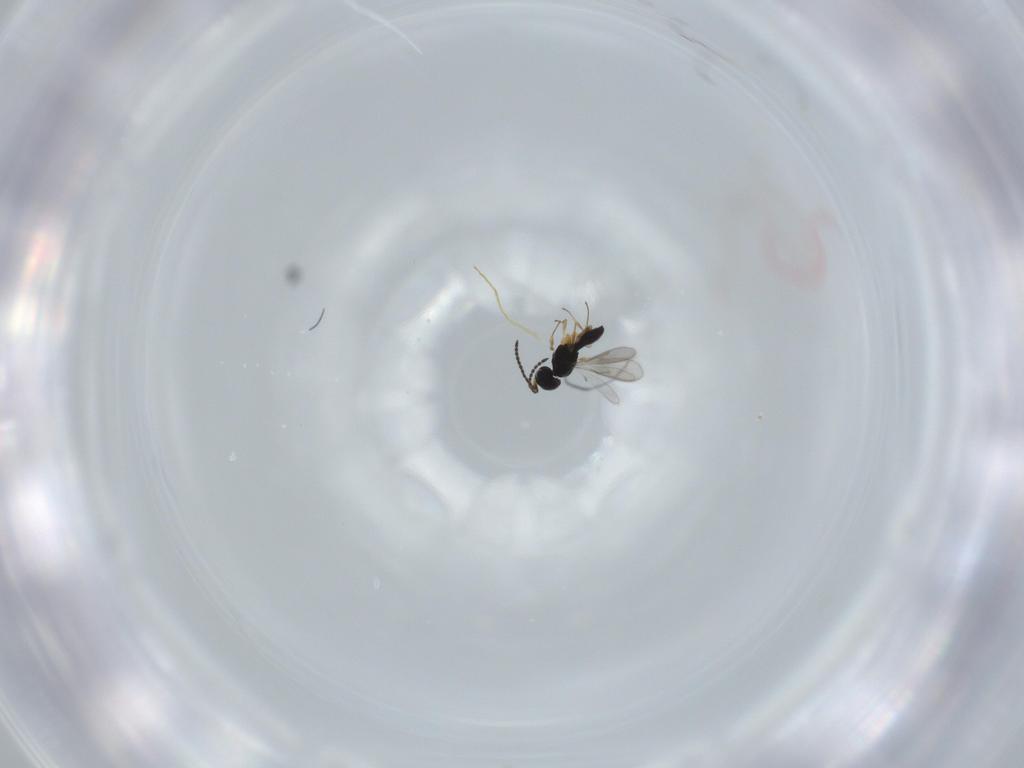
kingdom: Animalia
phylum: Arthropoda
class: Insecta
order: Hymenoptera
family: Scelionidae
